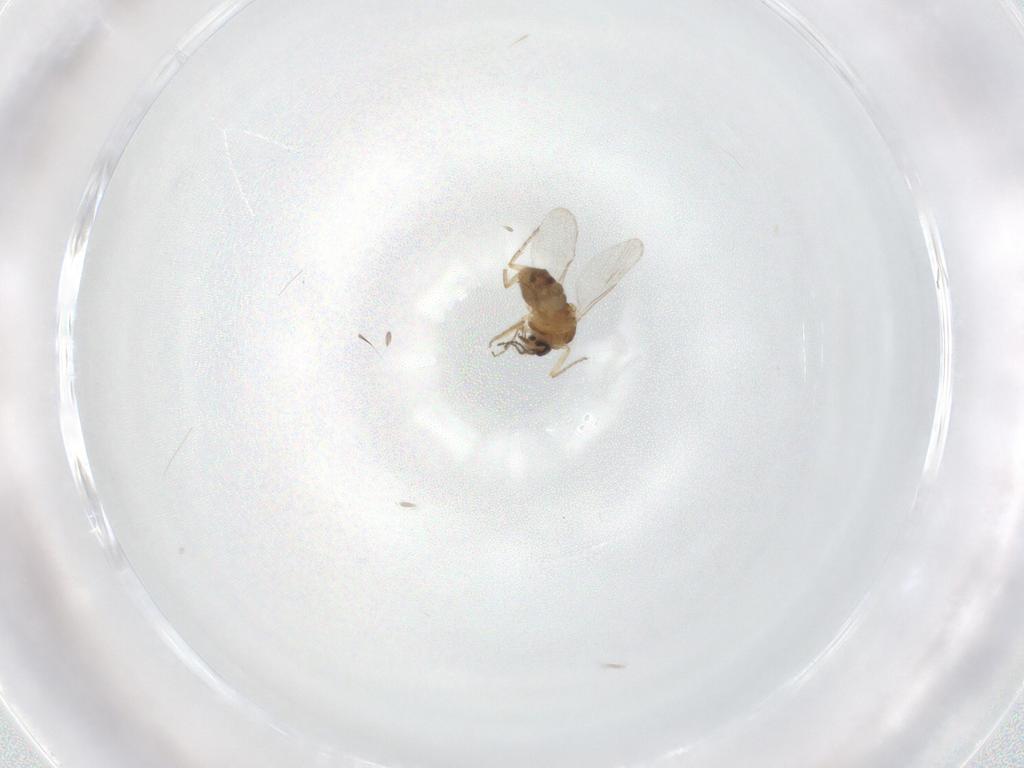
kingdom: Animalia
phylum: Arthropoda
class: Insecta
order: Diptera
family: Ceratopogonidae
